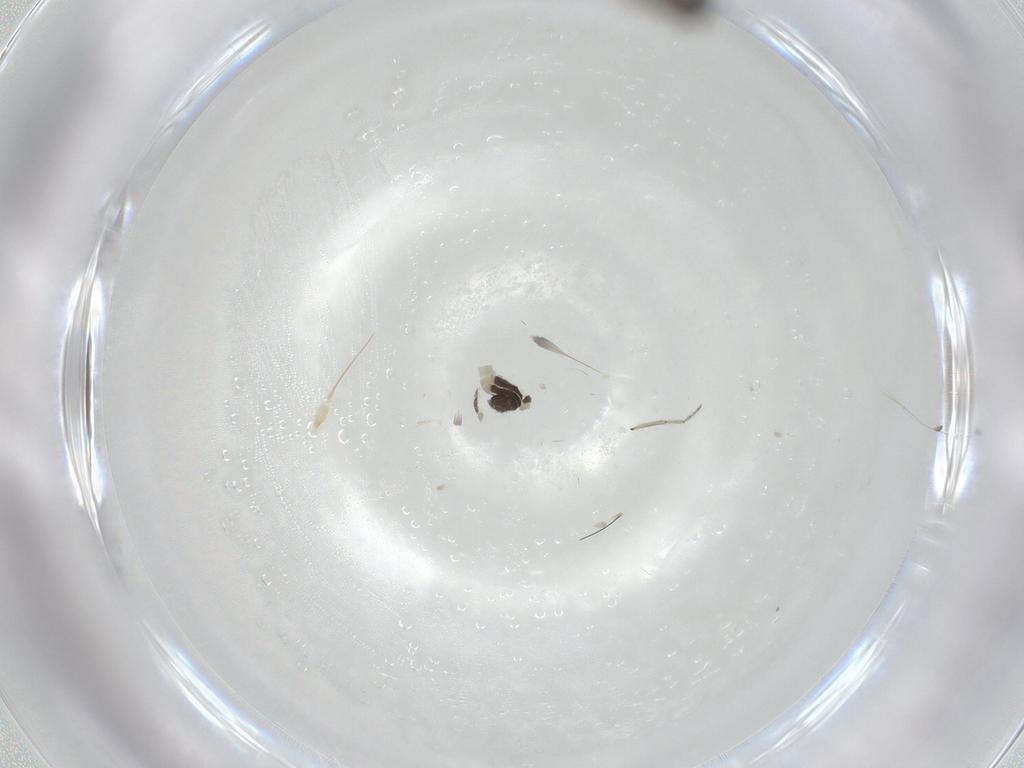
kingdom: Animalia
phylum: Arthropoda
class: Insecta
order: Diptera
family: Ceratopogonidae
